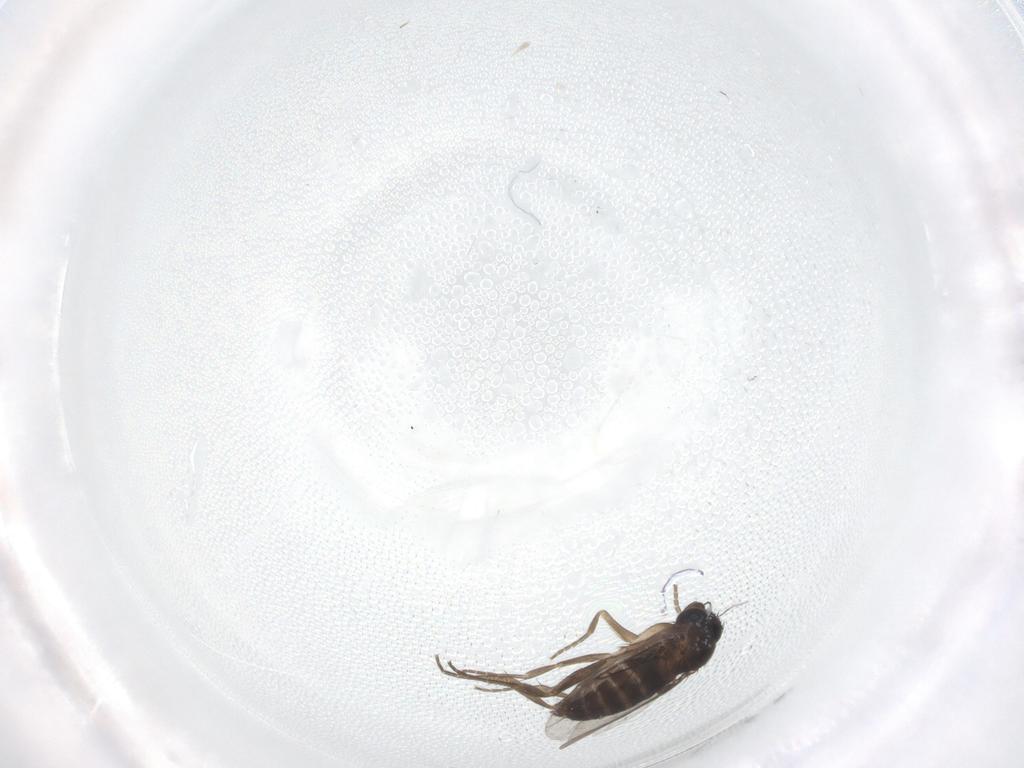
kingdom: Animalia
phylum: Arthropoda
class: Insecta
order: Diptera
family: Phoridae
